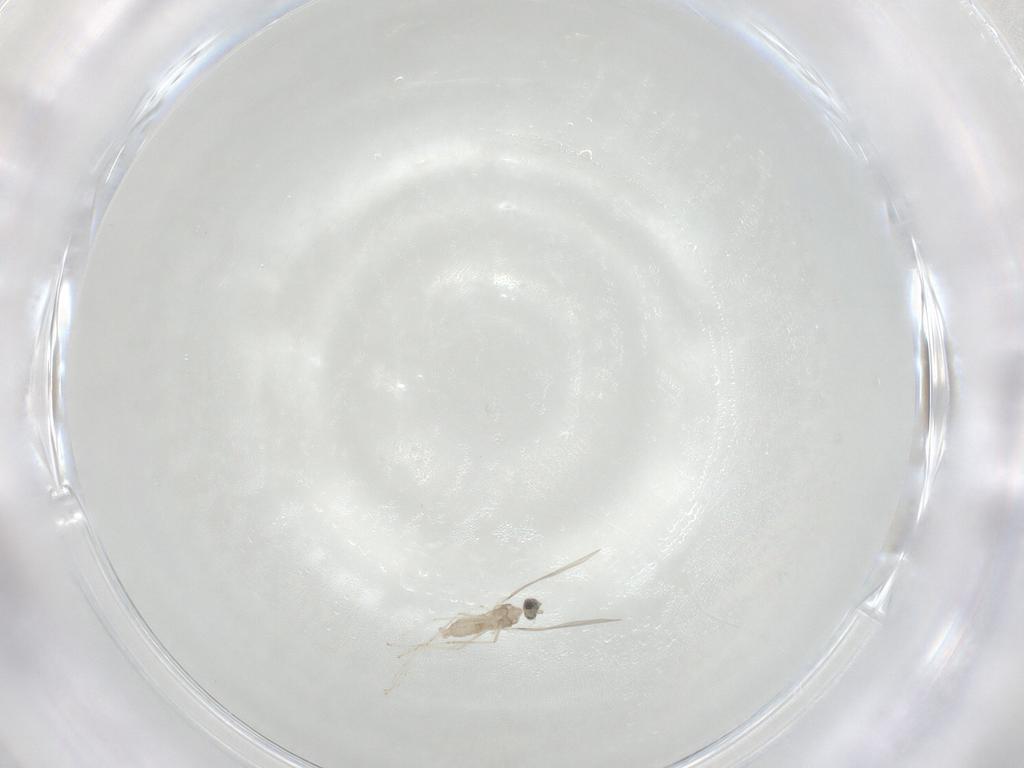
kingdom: Animalia
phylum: Arthropoda
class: Insecta
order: Diptera
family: Cecidomyiidae
